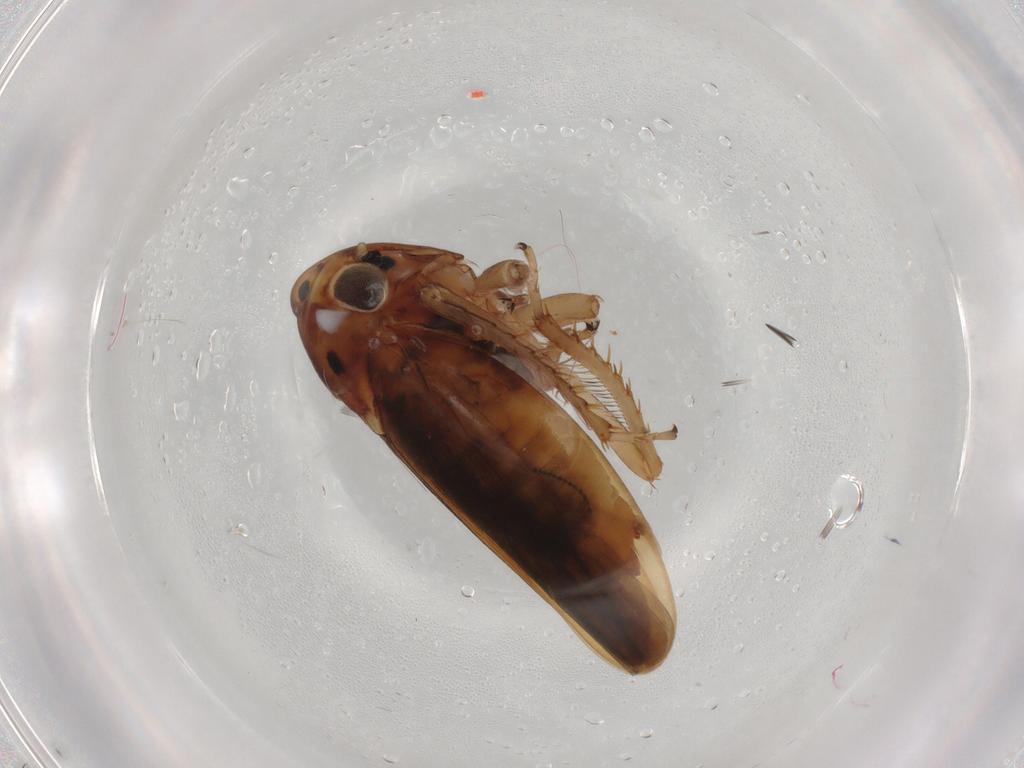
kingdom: Animalia
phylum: Arthropoda
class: Insecta
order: Hemiptera
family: Cicadellidae
